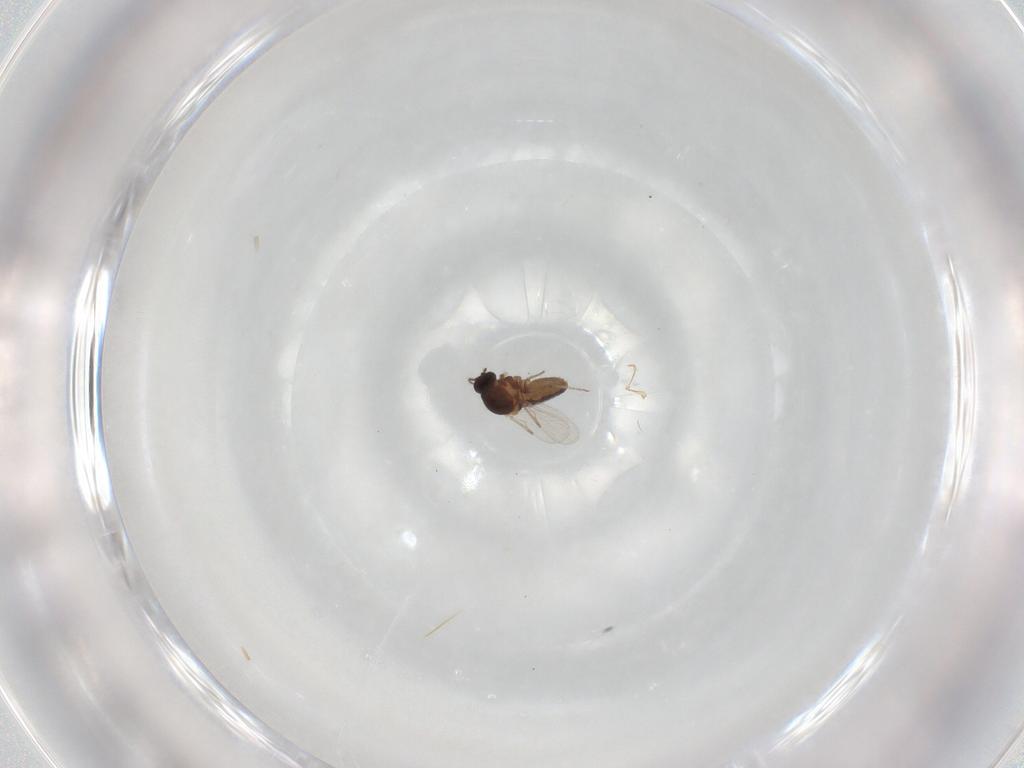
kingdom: Animalia
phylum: Arthropoda
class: Insecta
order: Diptera
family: Ceratopogonidae
